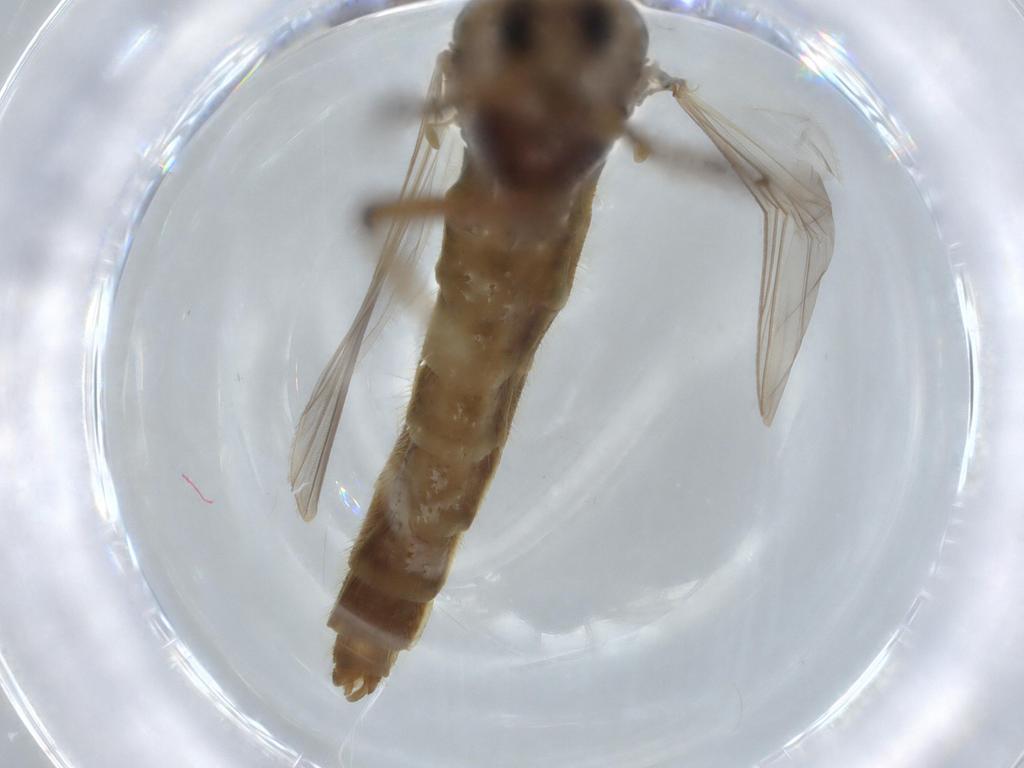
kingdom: Animalia
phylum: Arthropoda
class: Insecta
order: Diptera
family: Chironomidae
